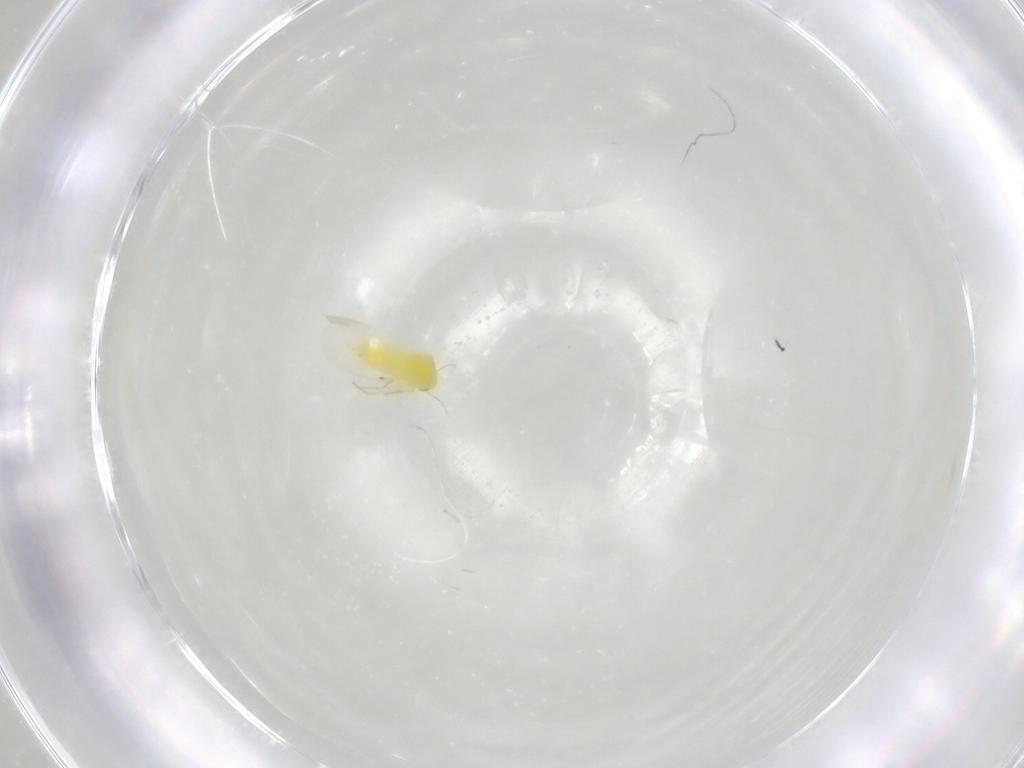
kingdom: Animalia
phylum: Arthropoda
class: Insecta
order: Hemiptera
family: Aleyrodidae
